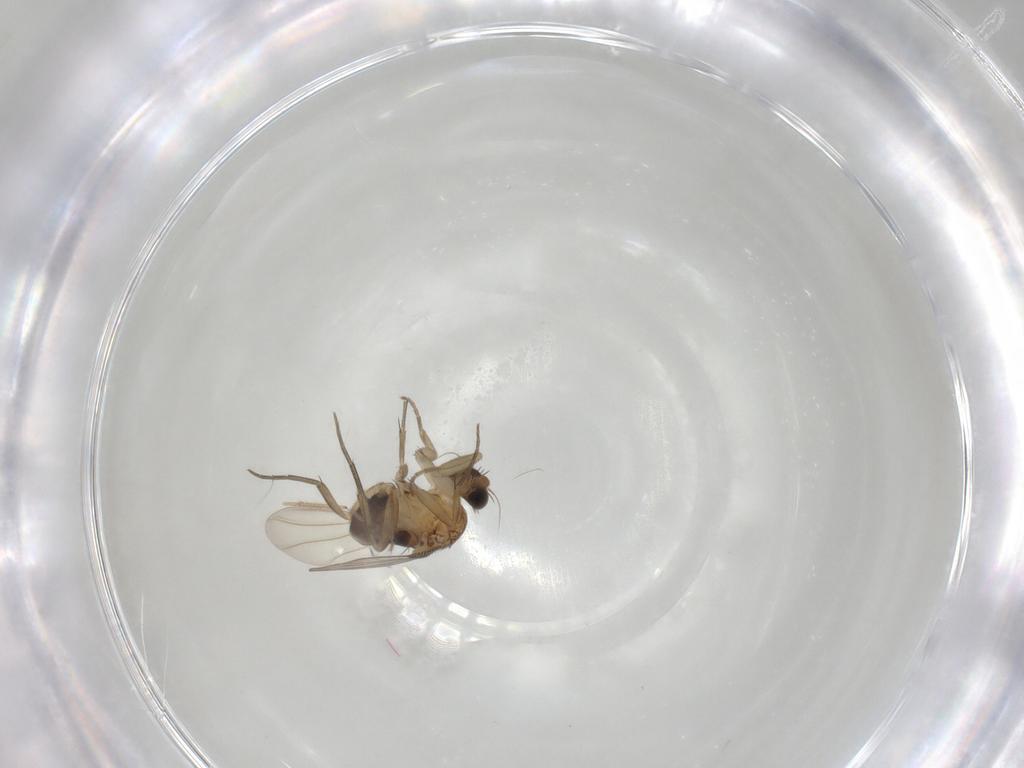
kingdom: Animalia
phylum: Arthropoda
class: Insecta
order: Diptera
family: Phoridae
